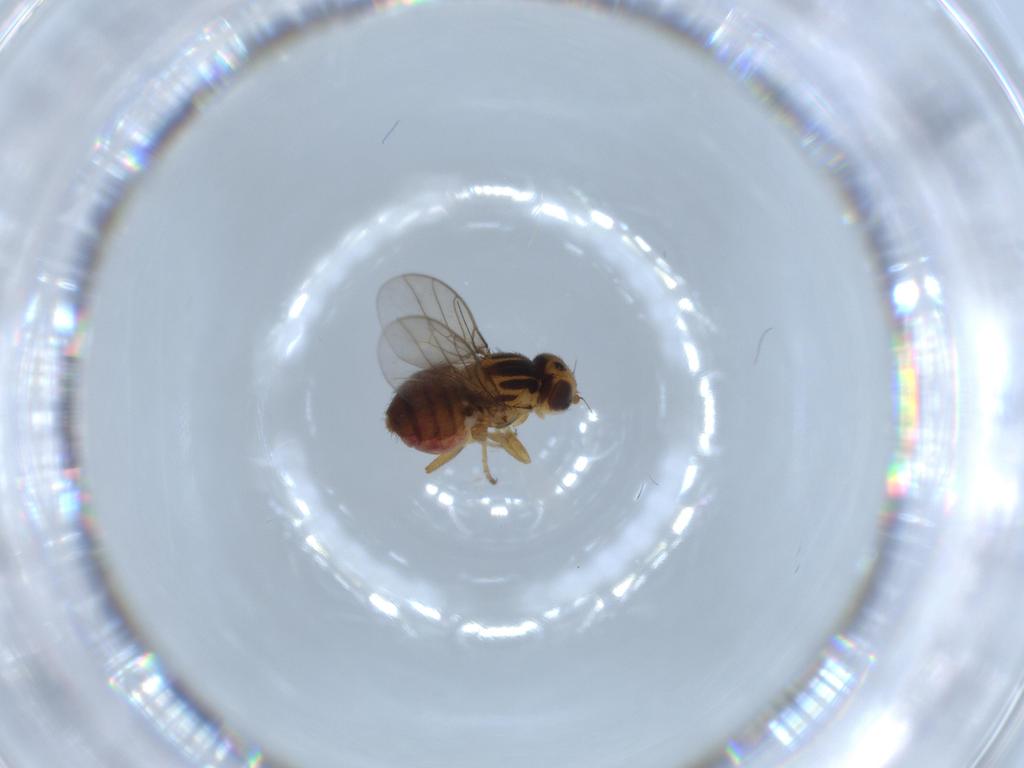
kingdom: Animalia
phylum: Arthropoda
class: Insecta
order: Diptera
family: Chloropidae
